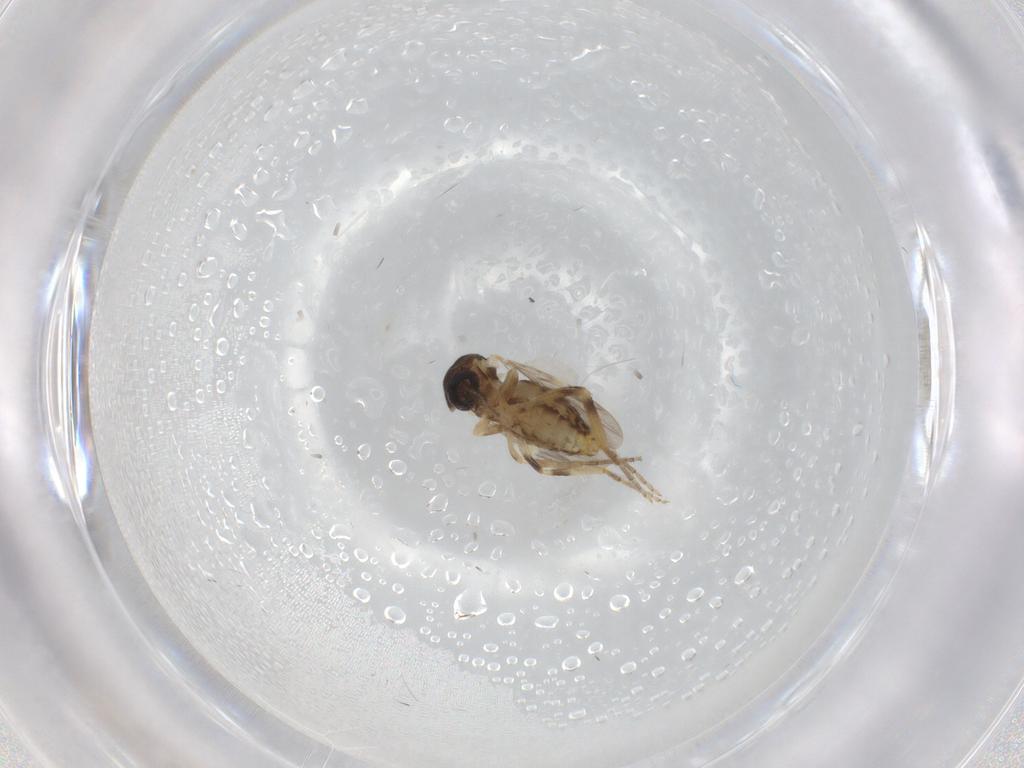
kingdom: Animalia
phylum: Arthropoda
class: Insecta
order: Diptera
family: Ceratopogonidae
